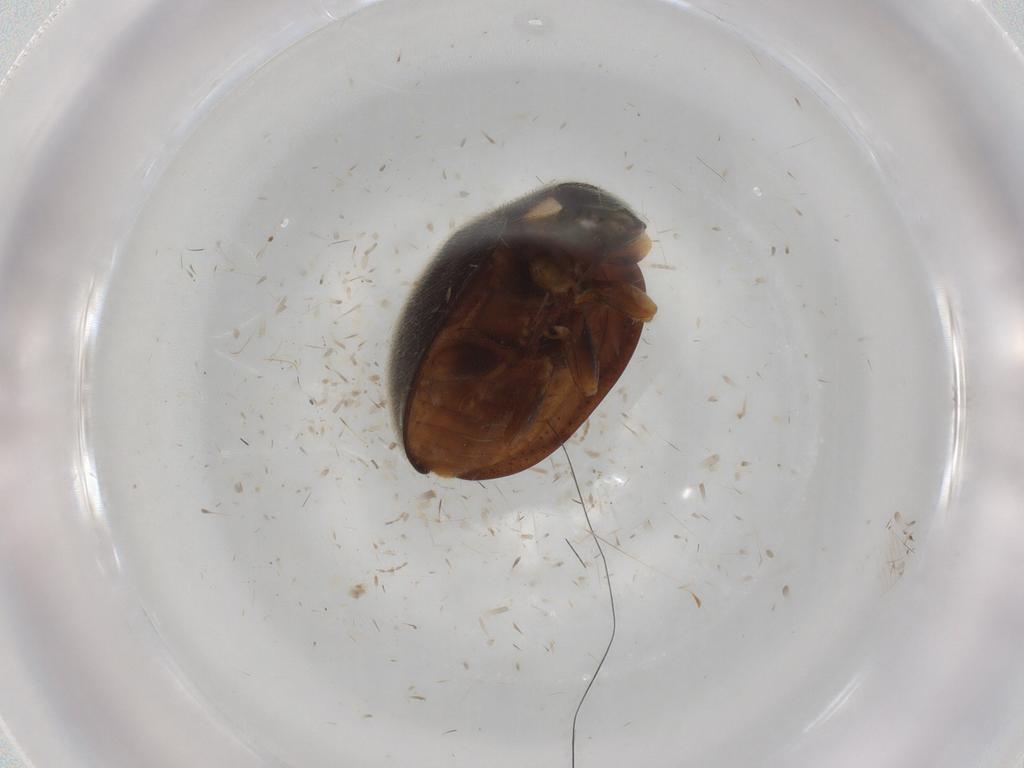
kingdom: Animalia
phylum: Arthropoda
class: Insecta
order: Coleoptera
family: Coccinellidae
